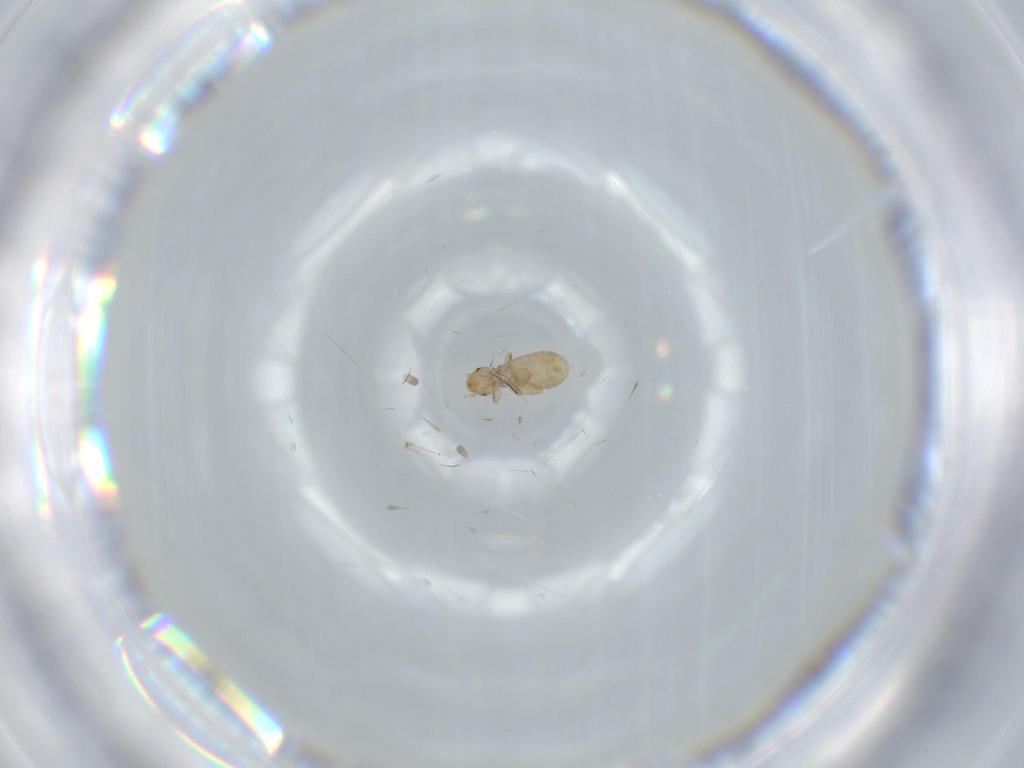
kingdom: Animalia
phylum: Arthropoda
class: Insecta
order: Psocodea
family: Liposcelididae
